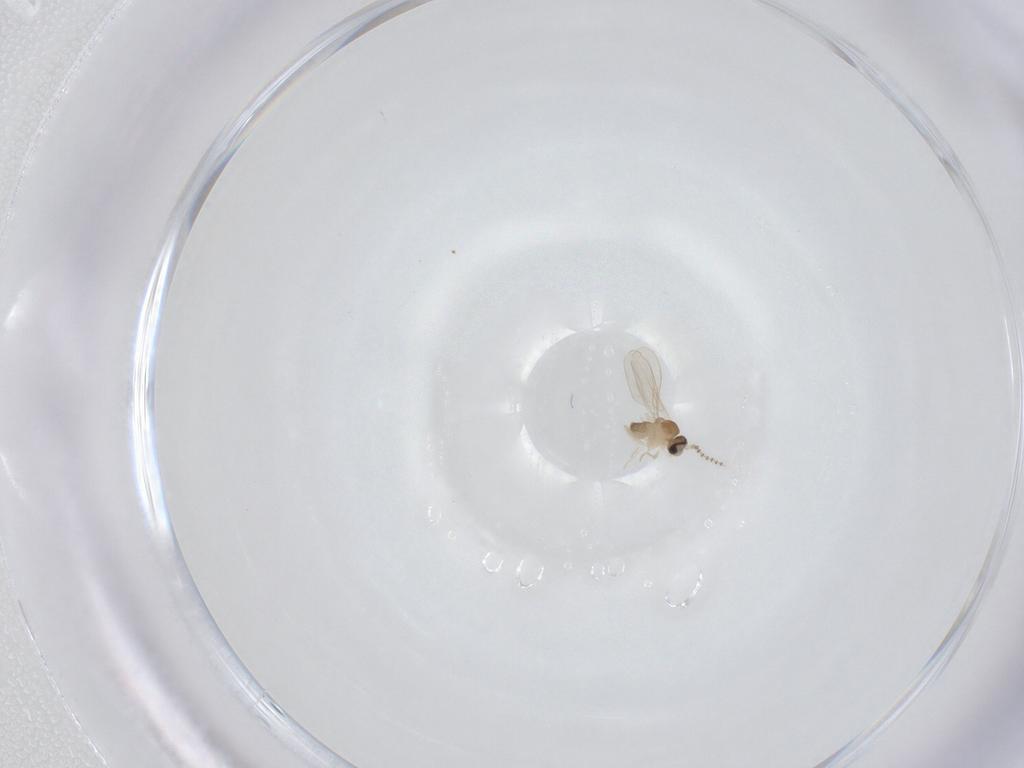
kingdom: Animalia
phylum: Arthropoda
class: Insecta
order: Diptera
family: Cecidomyiidae
